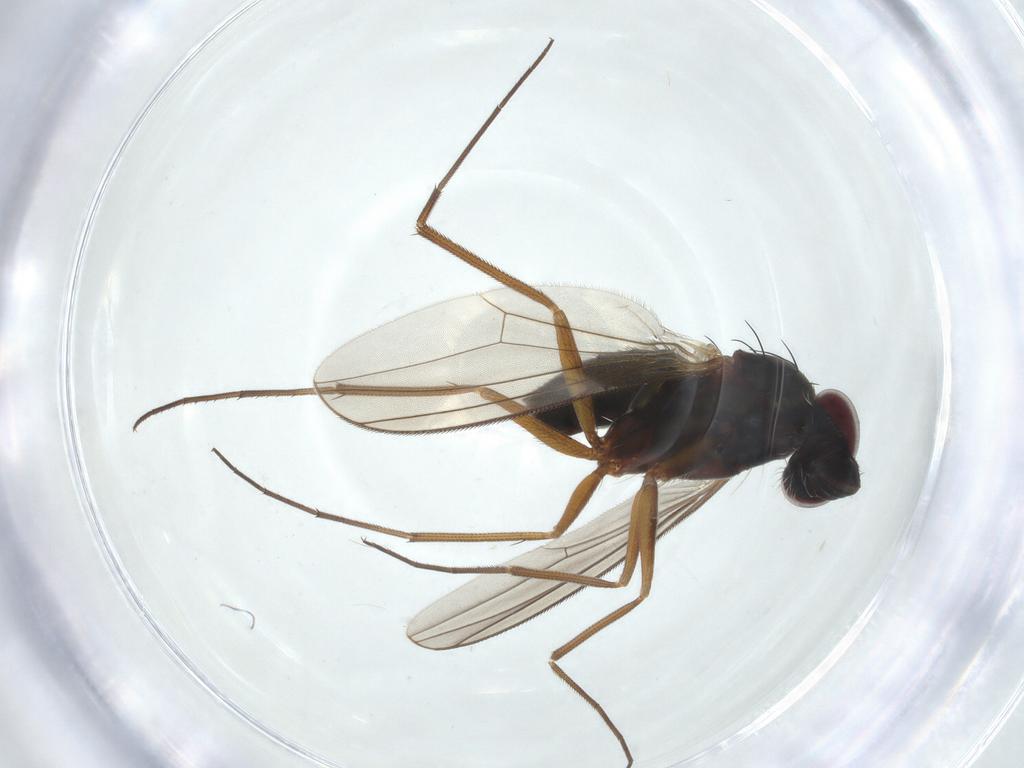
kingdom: Animalia
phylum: Arthropoda
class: Insecta
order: Diptera
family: Dolichopodidae
